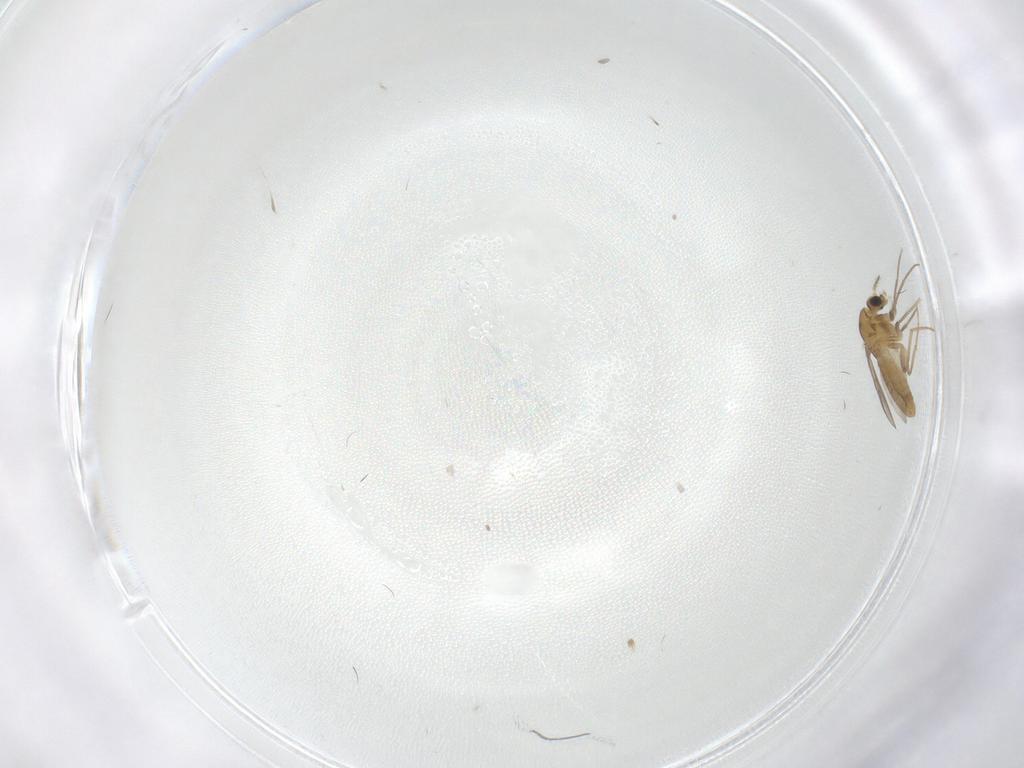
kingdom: Animalia
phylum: Arthropoda
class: Insecta
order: Diptera
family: Chironomidae
